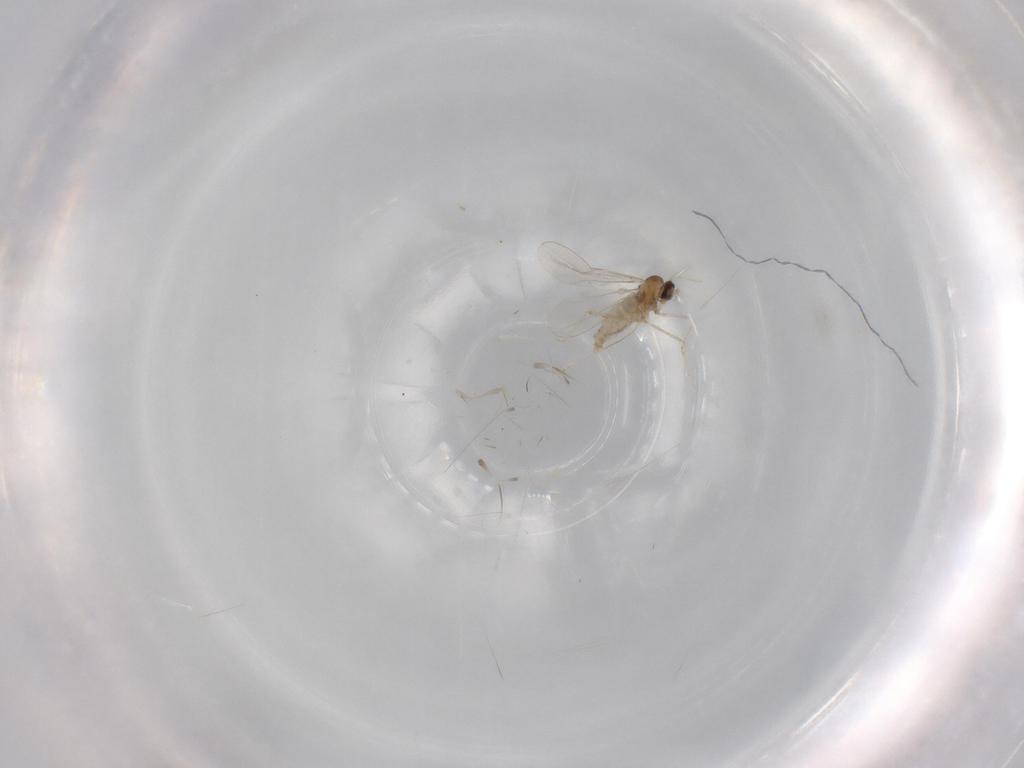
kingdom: Animalia
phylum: Arthropoda
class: Insecta
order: Diptera
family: Cecidomyiidae
